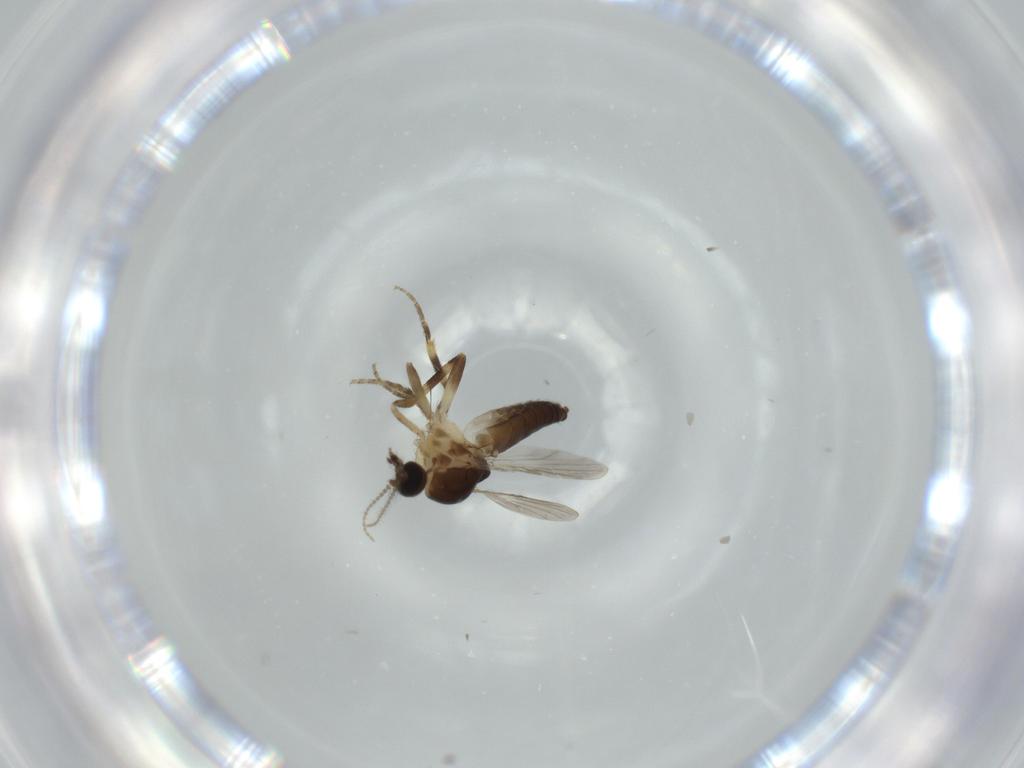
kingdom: Animalia
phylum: Arthropoda
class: Insecta
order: Diptera
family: Ceratopogonidae
